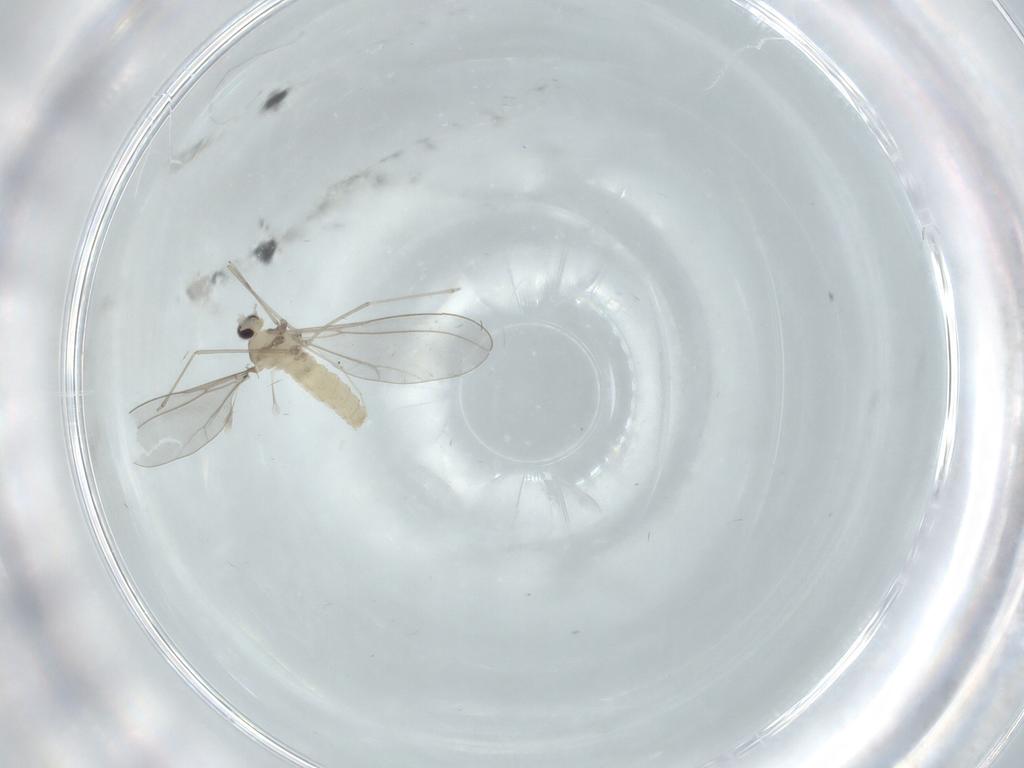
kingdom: Animalia
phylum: Arthropoda
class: Insecta
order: Diptera
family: Cecidomyiidae
